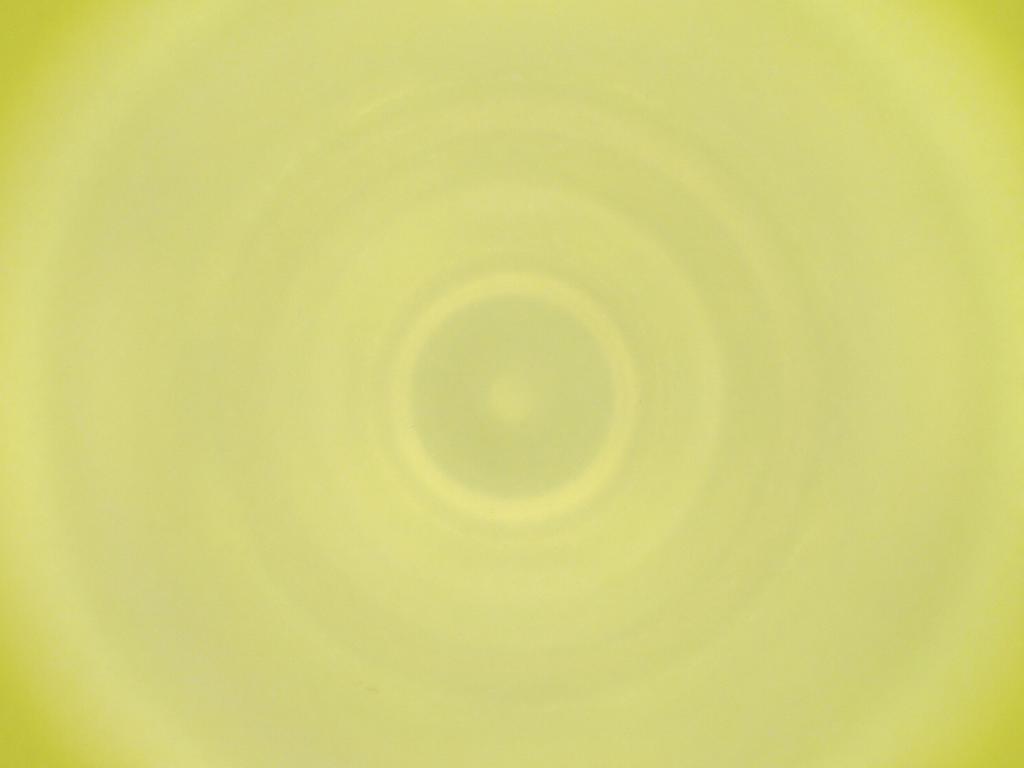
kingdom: Animalia
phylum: Arthropoda
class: Insecta
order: Diptera
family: Cecidomyiidae
